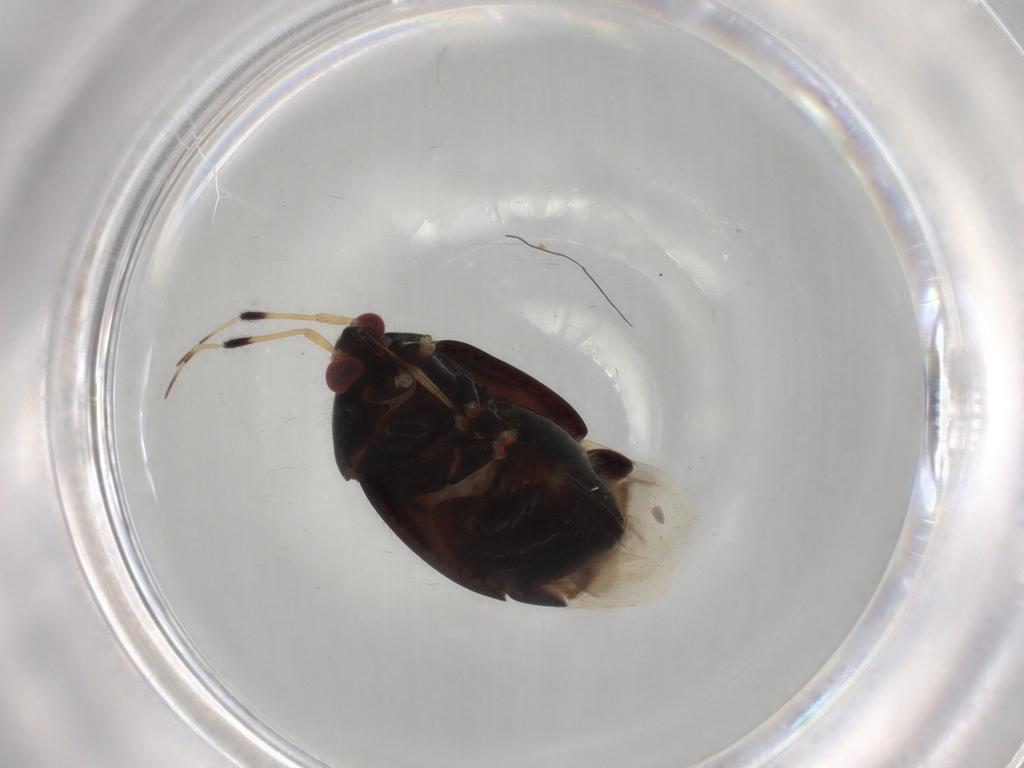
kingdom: Animalia
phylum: Arthropoda
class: Insecta
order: Hemiptera
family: Miridae
